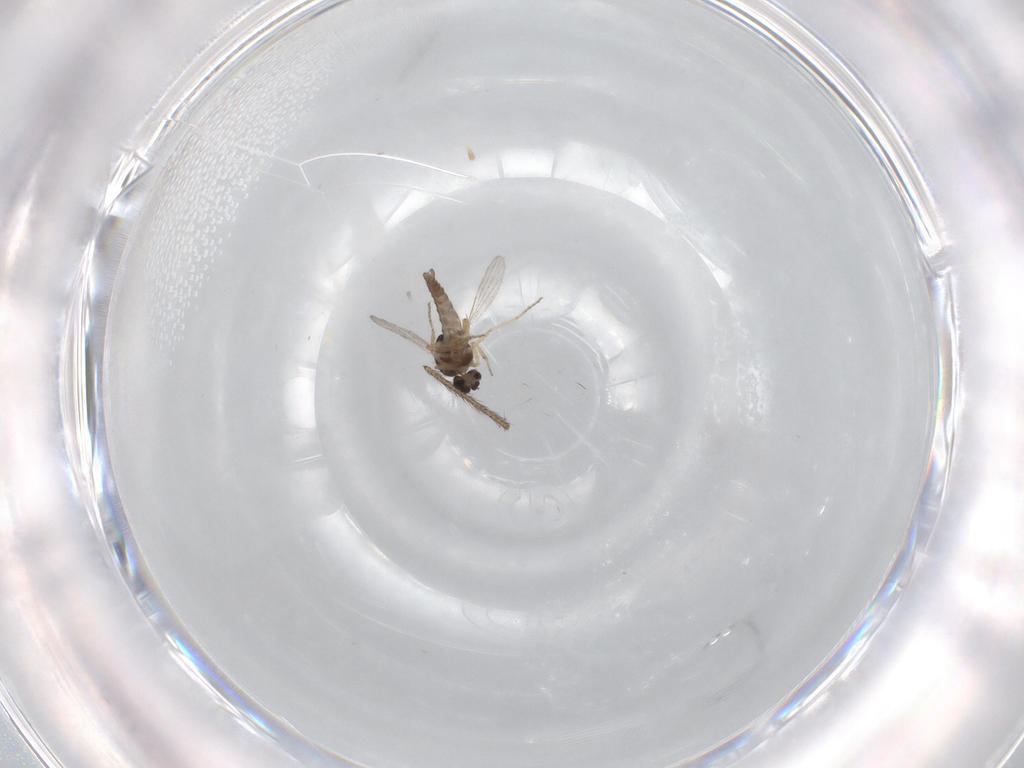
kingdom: Animalia
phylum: Arthropoda
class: Insecta
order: Diptera
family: Ceratopogonidae
